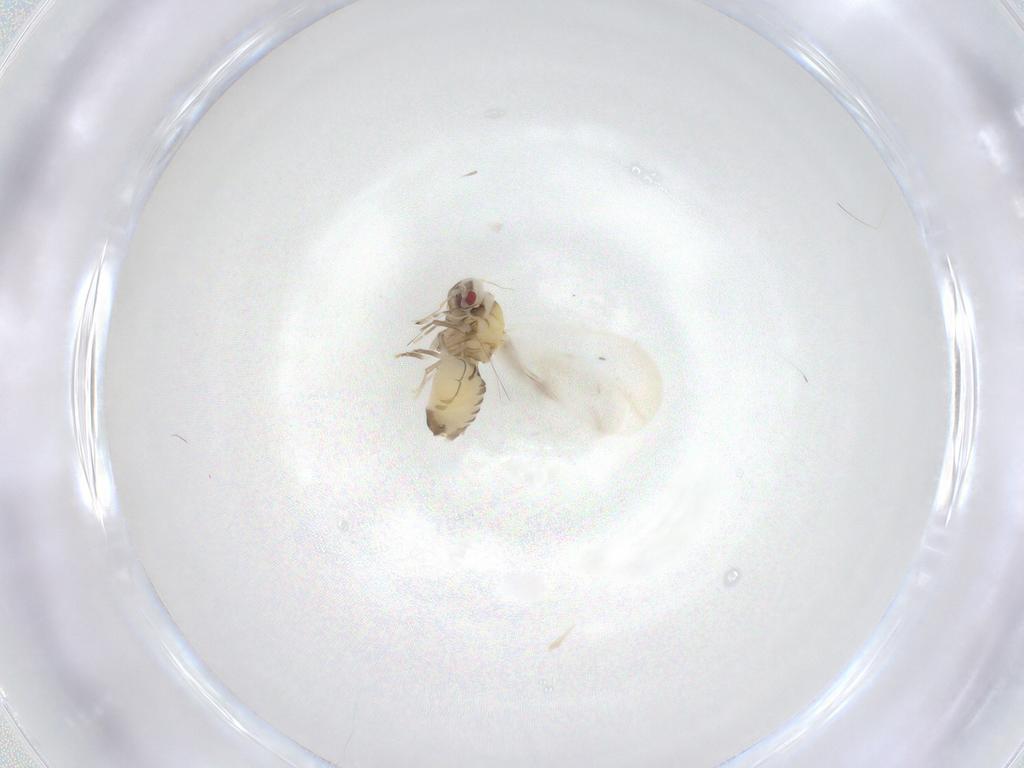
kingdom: Animalia
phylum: Arthropoda
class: Insecta
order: Hemiptera
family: Aleyrodidae
